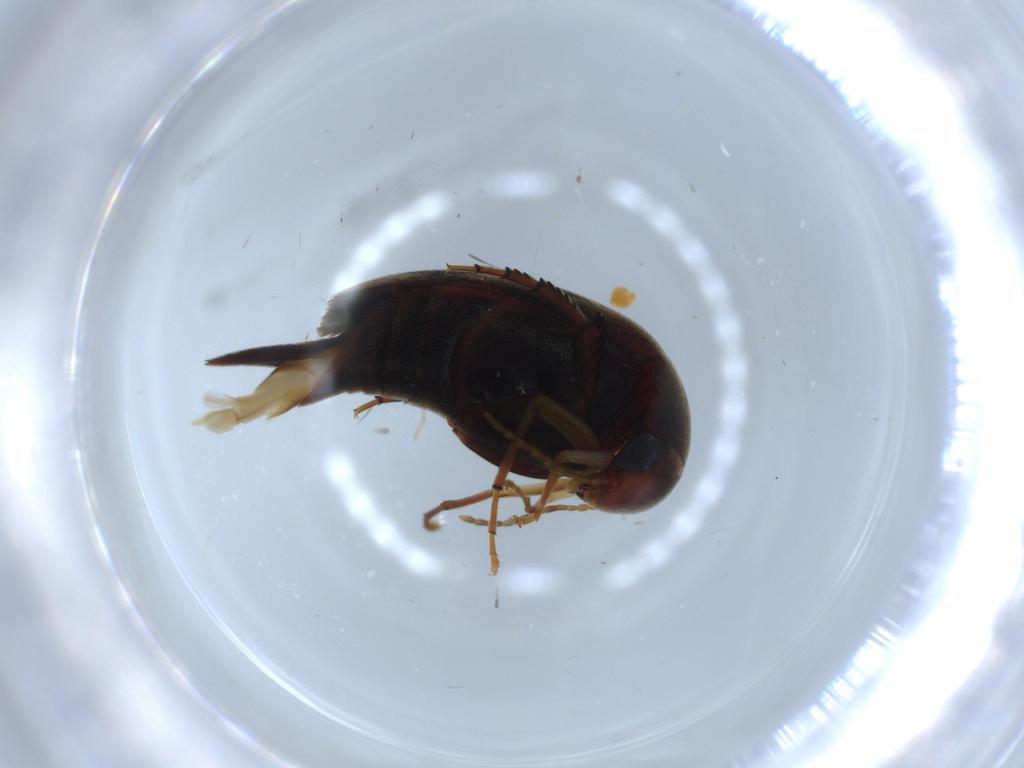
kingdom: Animalia
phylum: Arthropoda
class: Insecta
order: Coleoptera
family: Throscidae
